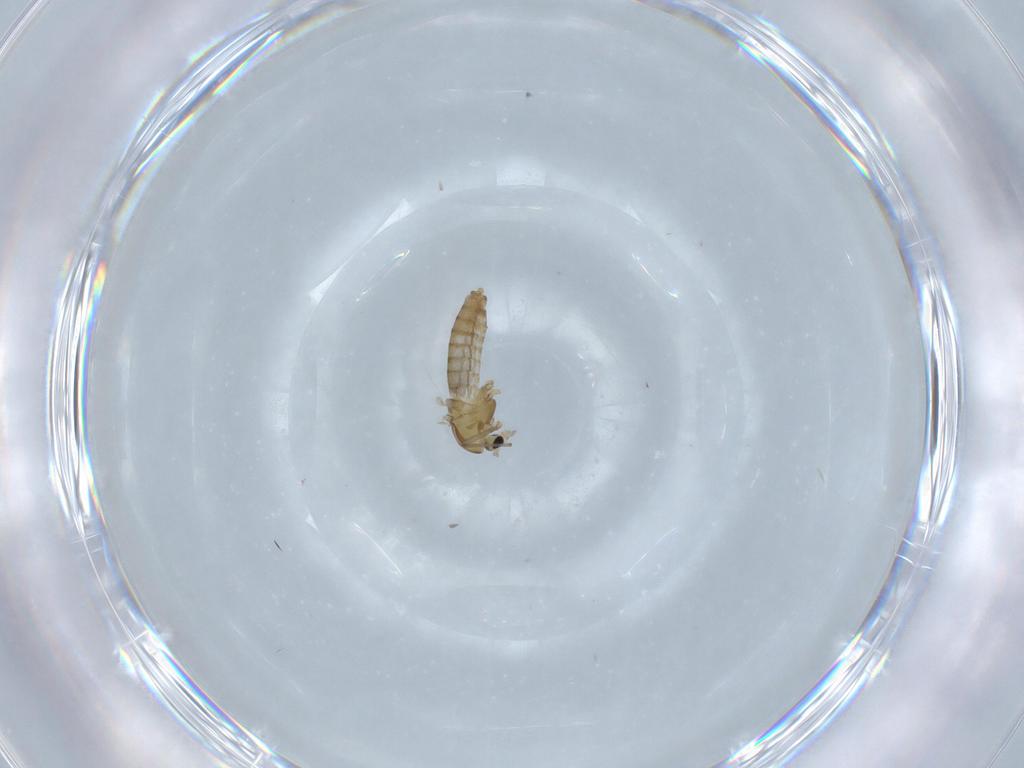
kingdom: Animalia
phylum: Arthropoda
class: Insecta
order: Diptera
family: Chironomidae
